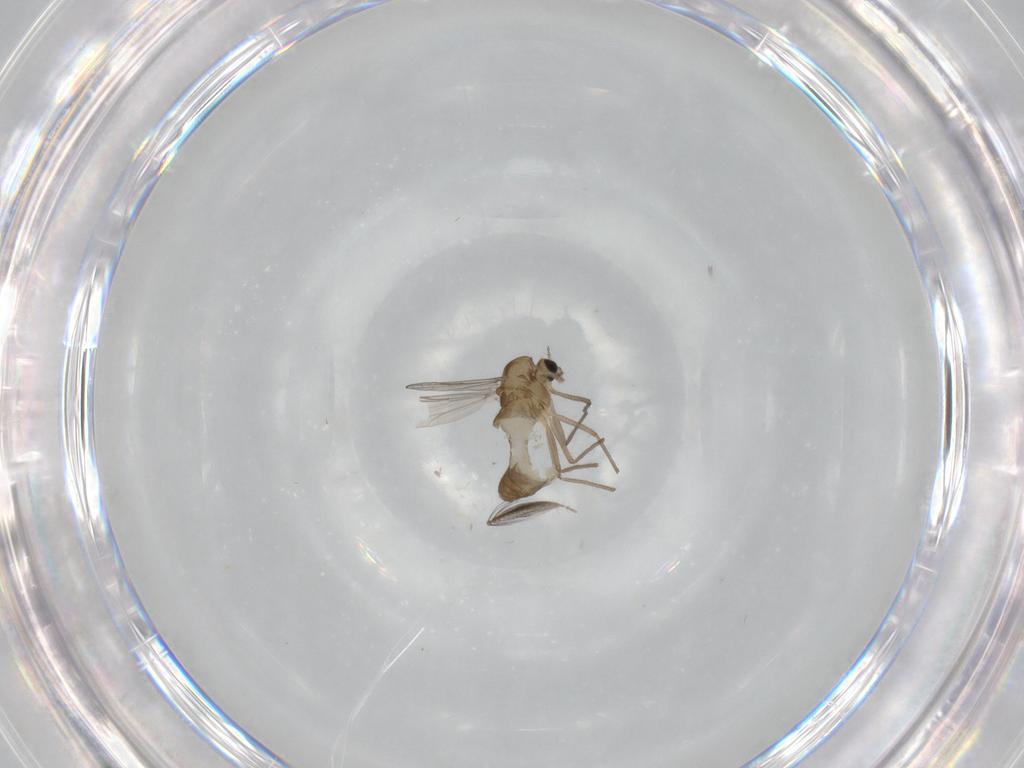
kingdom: Animalia
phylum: Arthropoda
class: Insecta
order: Diptera
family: Chironomidae
